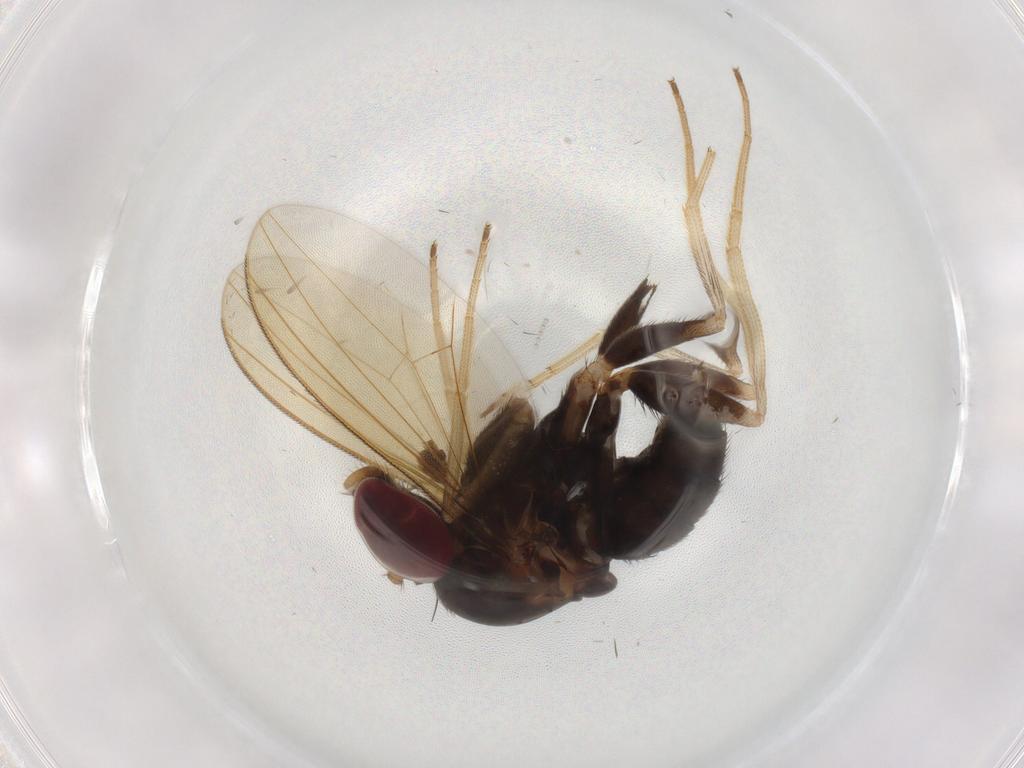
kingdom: Animalia
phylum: Arthropoda
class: Insecta
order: Diptera
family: Dolichopodidae
